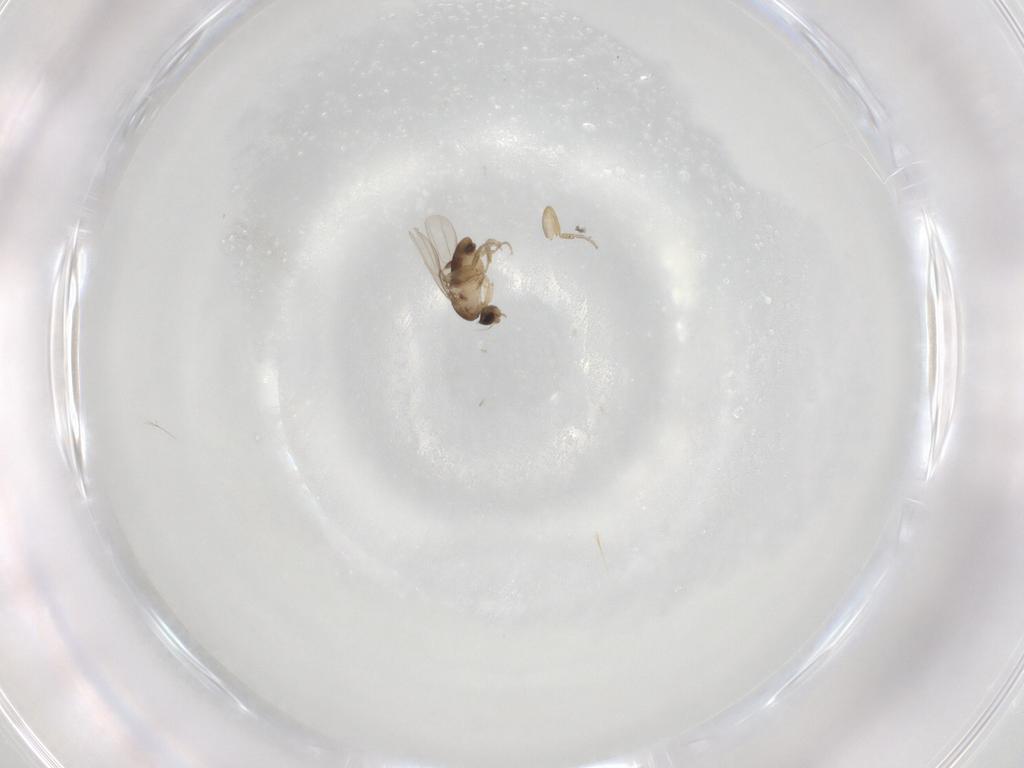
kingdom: Animalia
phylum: Arthropoda
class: Insecta
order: Diptera
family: Phoridae
